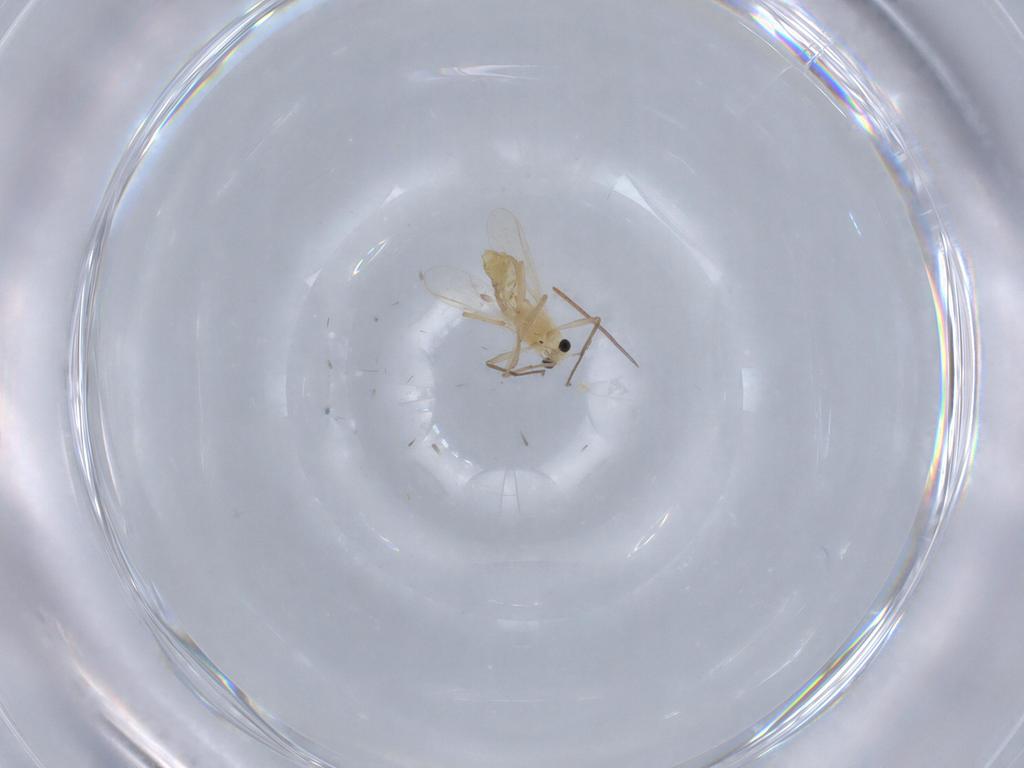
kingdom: Animalia
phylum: Arthropoda
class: Insecta
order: Diptera
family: Chironomidae
